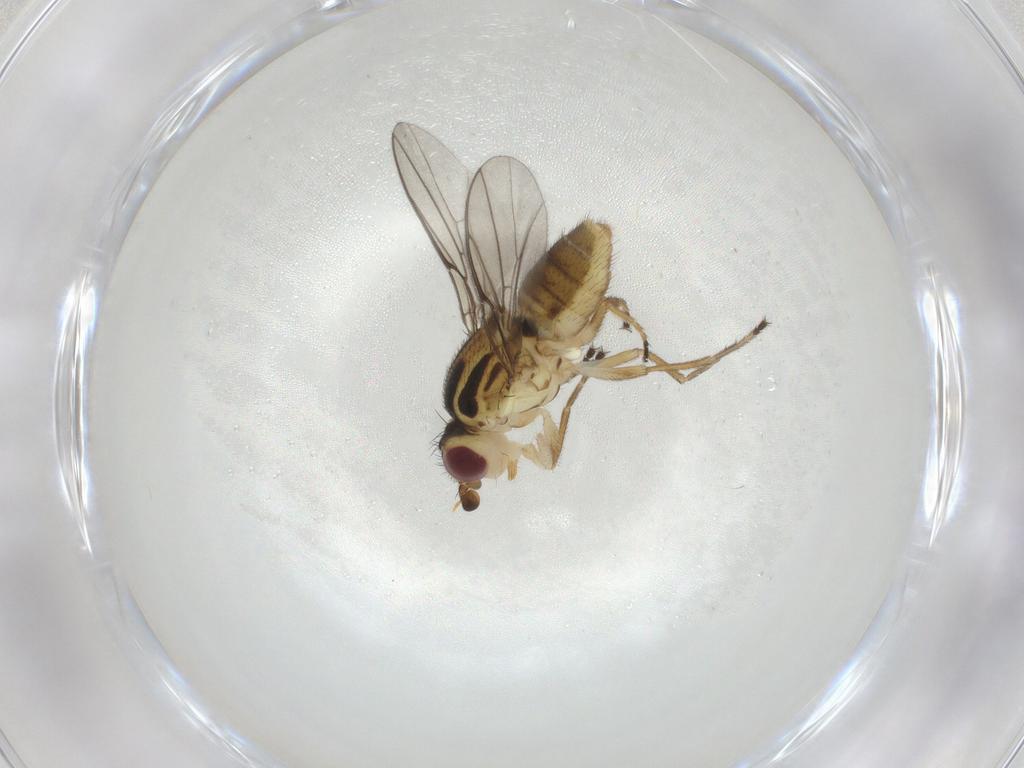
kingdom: Animalia
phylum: Arthropoda
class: Insecta
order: Diptera
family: Chloropidae
